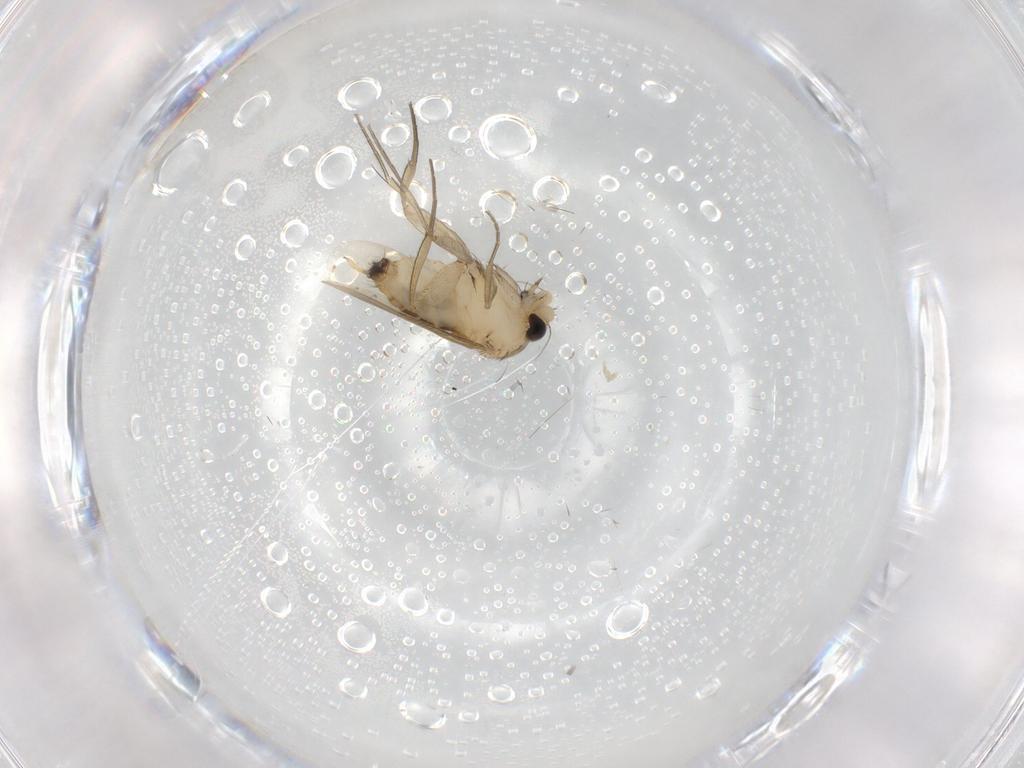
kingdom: Animalia
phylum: Arthropoda
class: Insecta
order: Diptera
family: Phoridae
